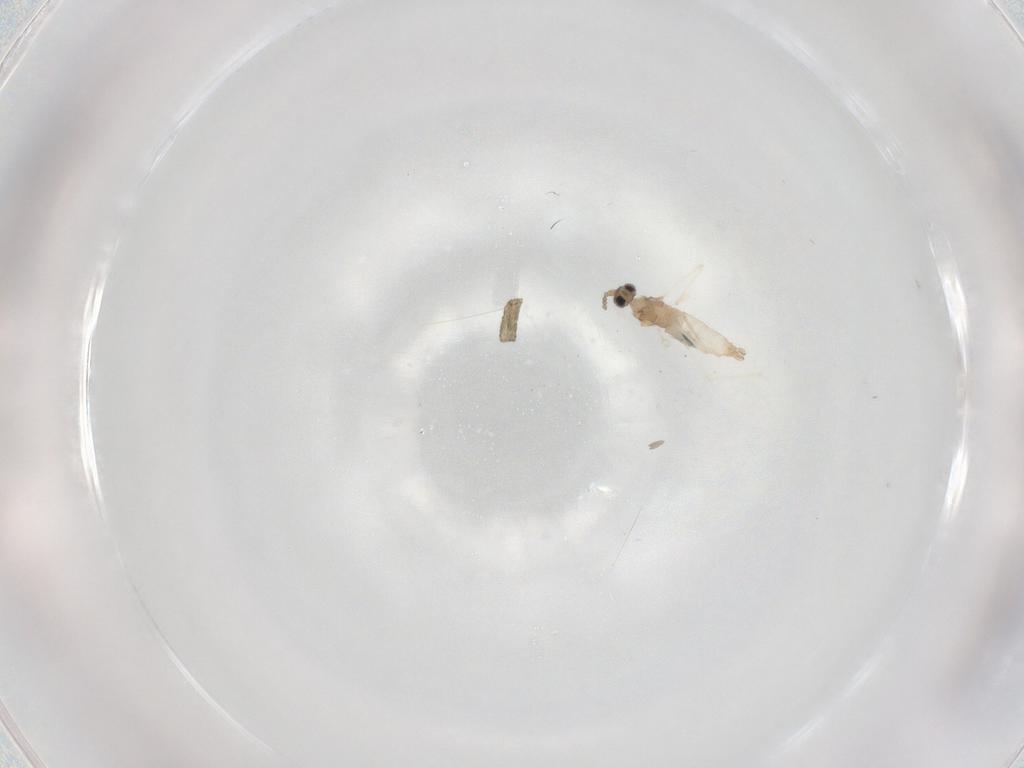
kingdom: Animalia
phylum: Arthropoda
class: Insecta
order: Diptera
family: Cecidomyiidae
